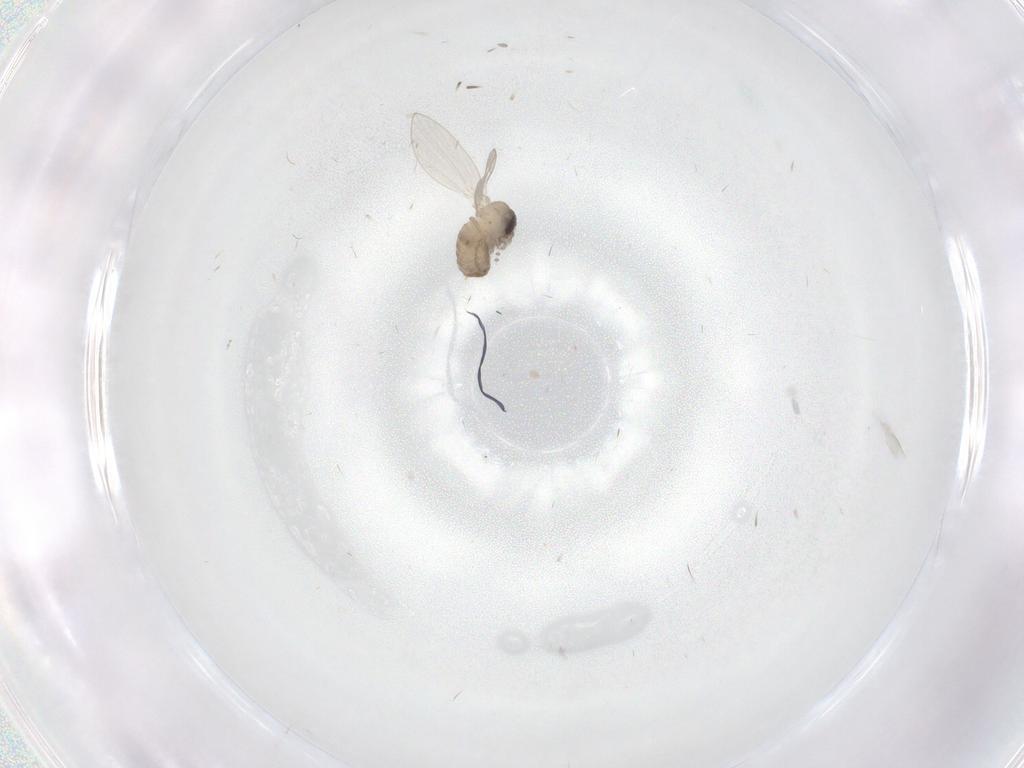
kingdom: Animalia
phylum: Arthropoda
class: Insecta
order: Diptera
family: Psychodidae
